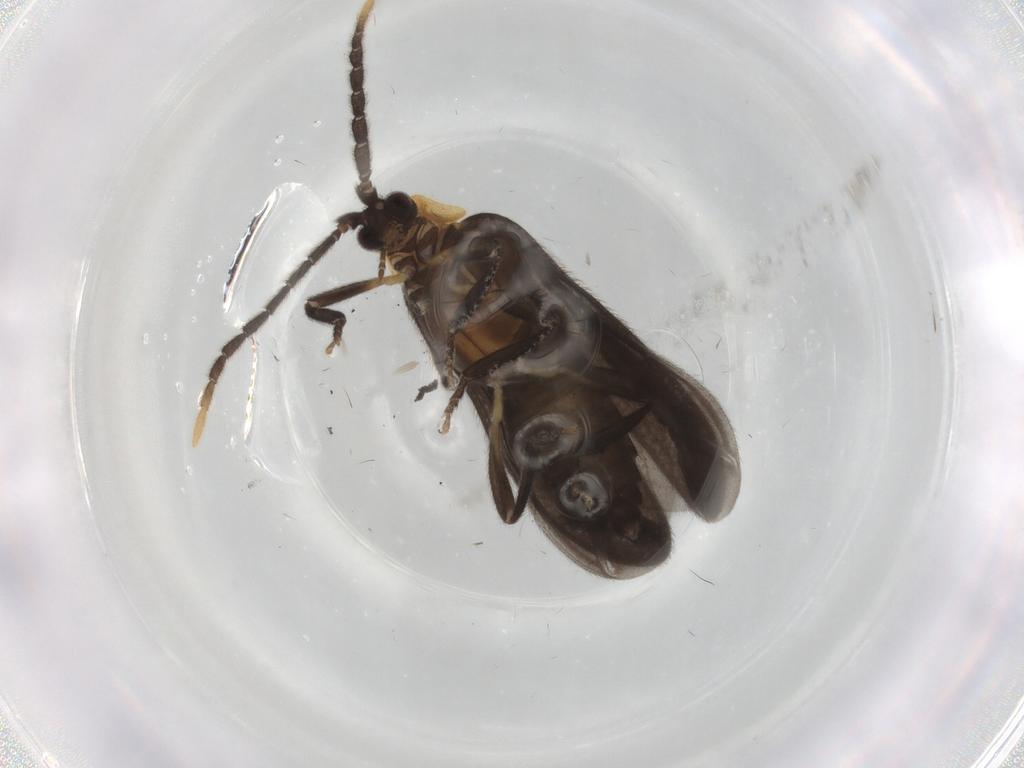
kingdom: Animalia
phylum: Arthropoda
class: Insecta
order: Coleoptera
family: Lycidae
